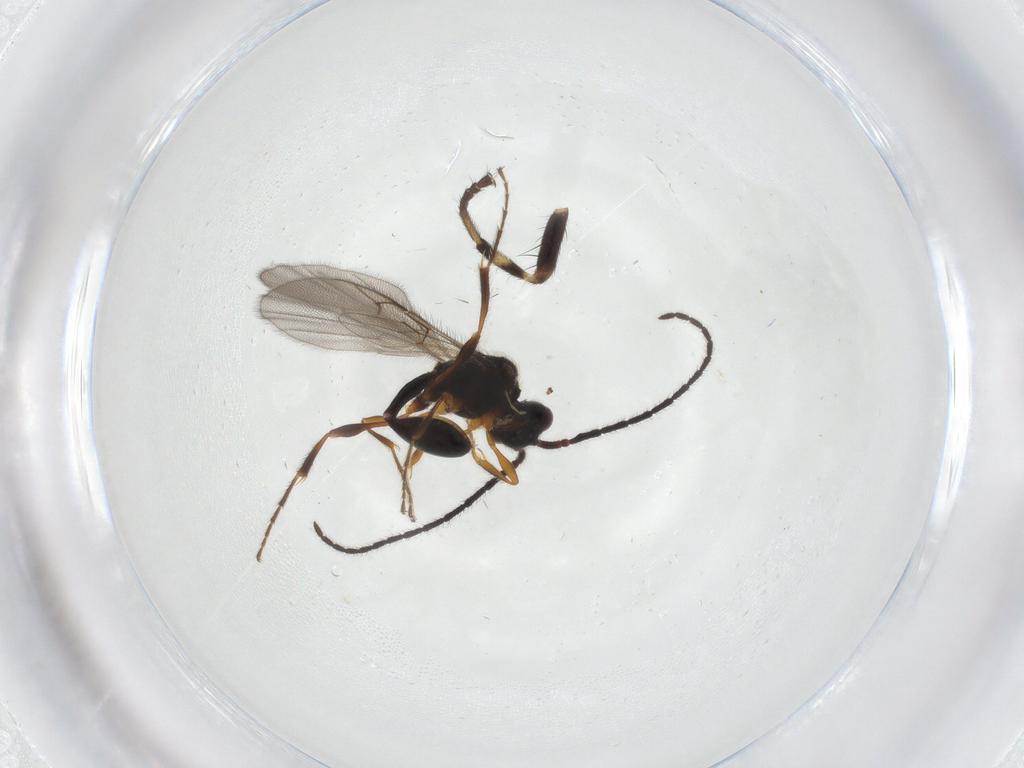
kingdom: Animalia
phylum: Arthropoda
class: Insecta
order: Hymenoptera
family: Diapriidae
